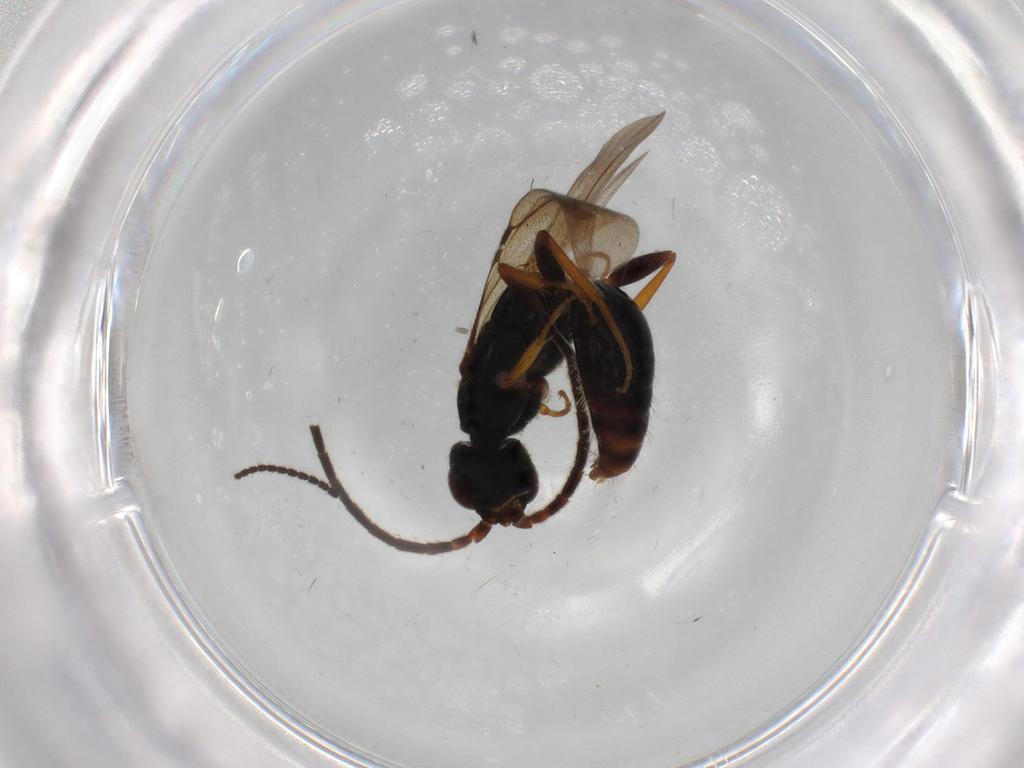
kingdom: Animalia
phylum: Arthropoda
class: Insecta
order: Hymenoptera
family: Bethylidae
